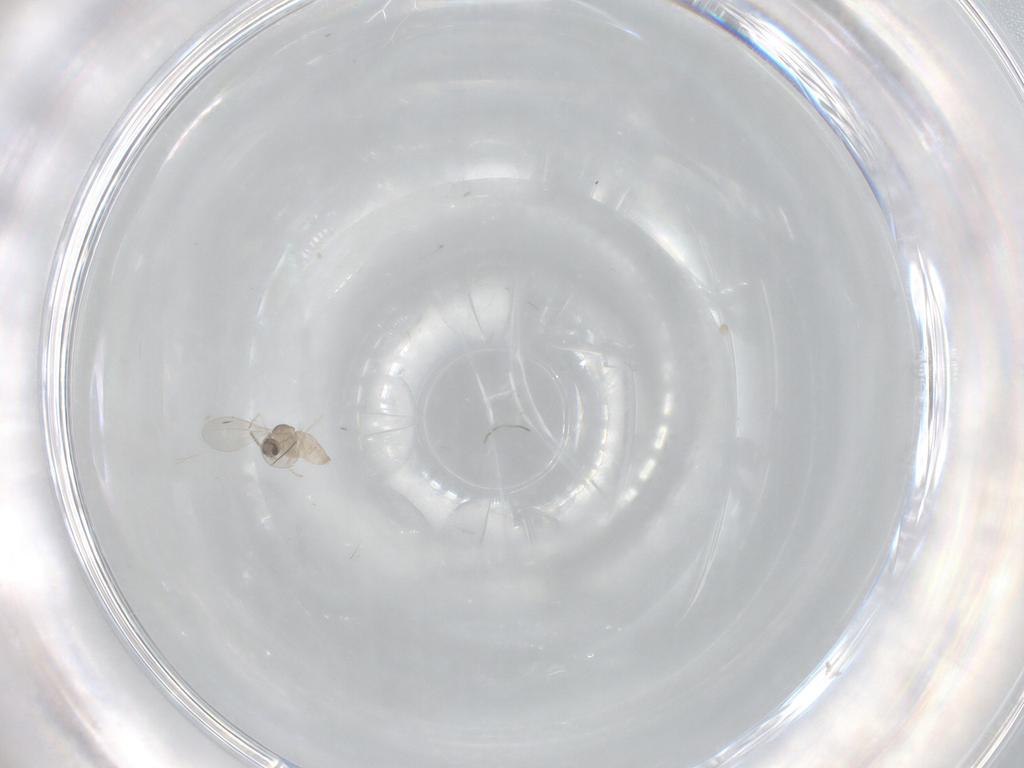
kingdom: Animalia
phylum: Arthropoda
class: Insecta
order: Diptera
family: Cecidomyiidae
